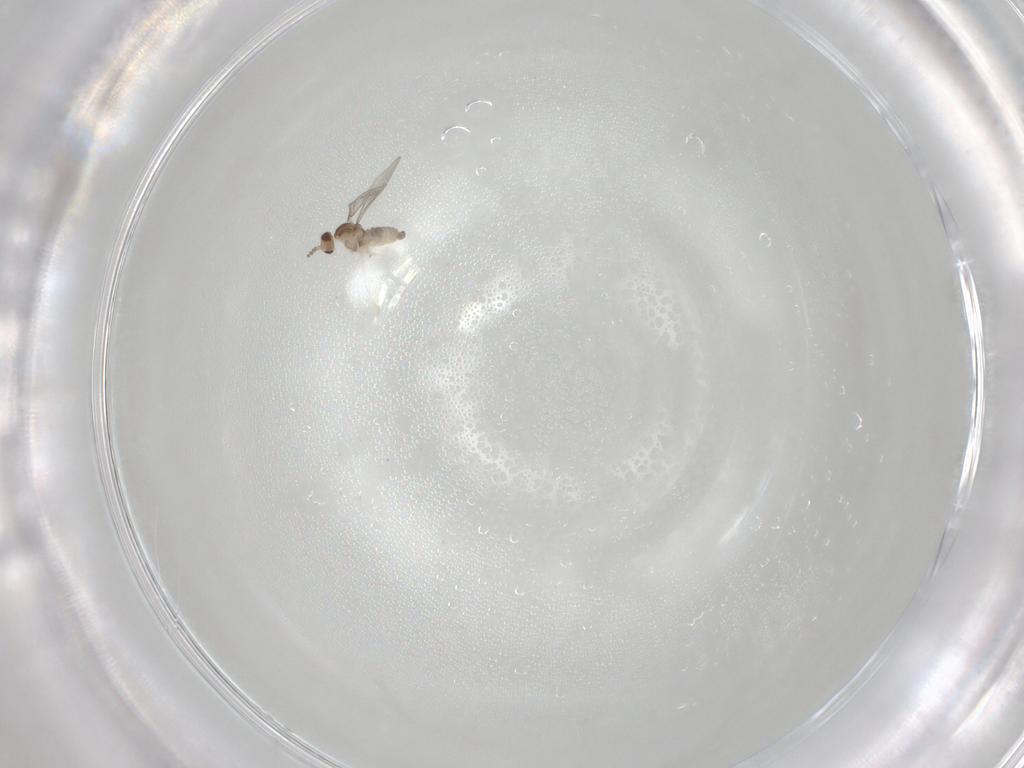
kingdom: Animalia
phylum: Arthropoda
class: Insecta
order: Diptera
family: Cecidomyiidae
